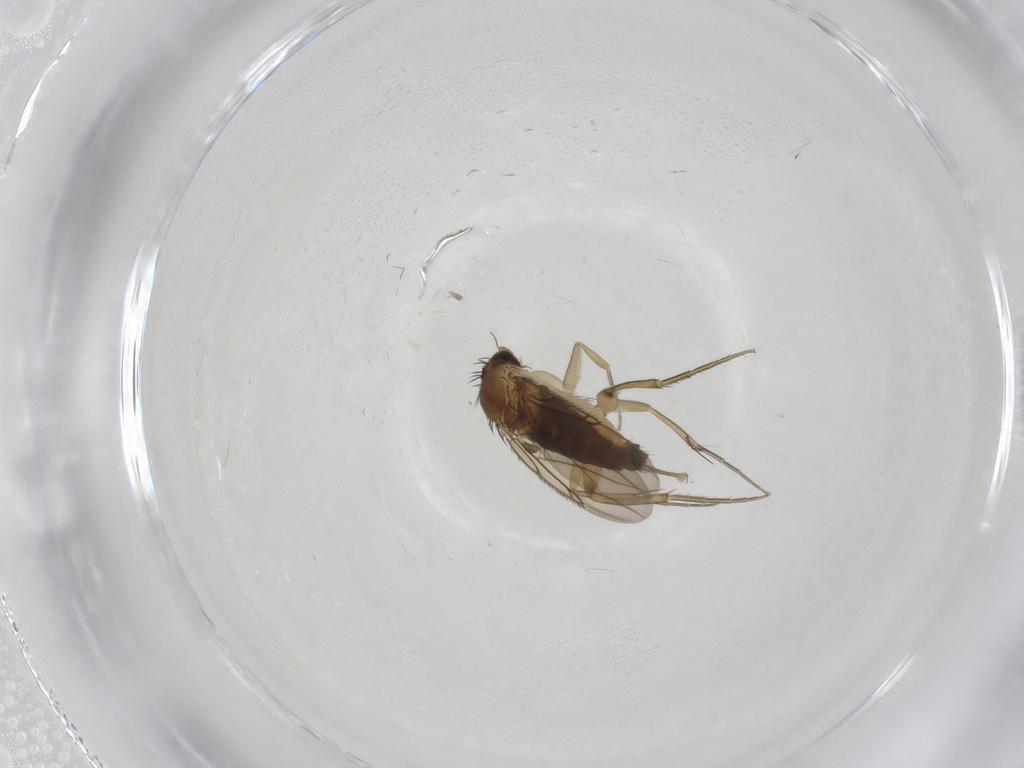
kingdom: Animalia
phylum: Arthropoda
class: Insecta
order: Diptera
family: Phoridae
